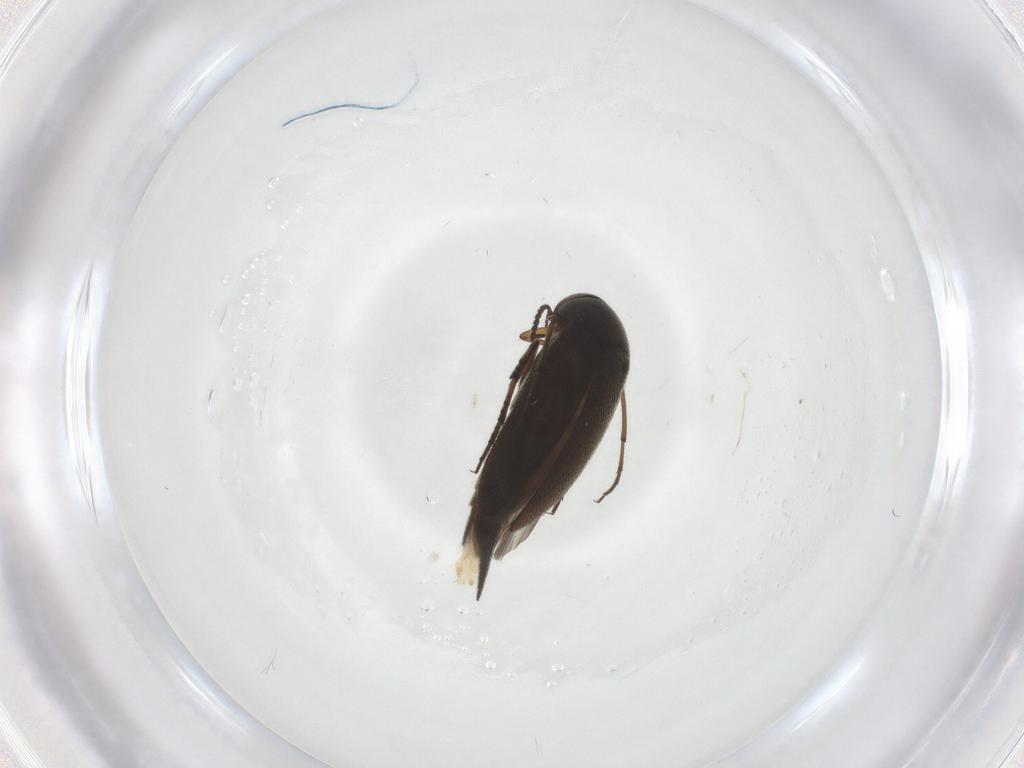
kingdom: Animalia
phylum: Arthropoda
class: Insecta
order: Coleoptera
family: Mordellidae
